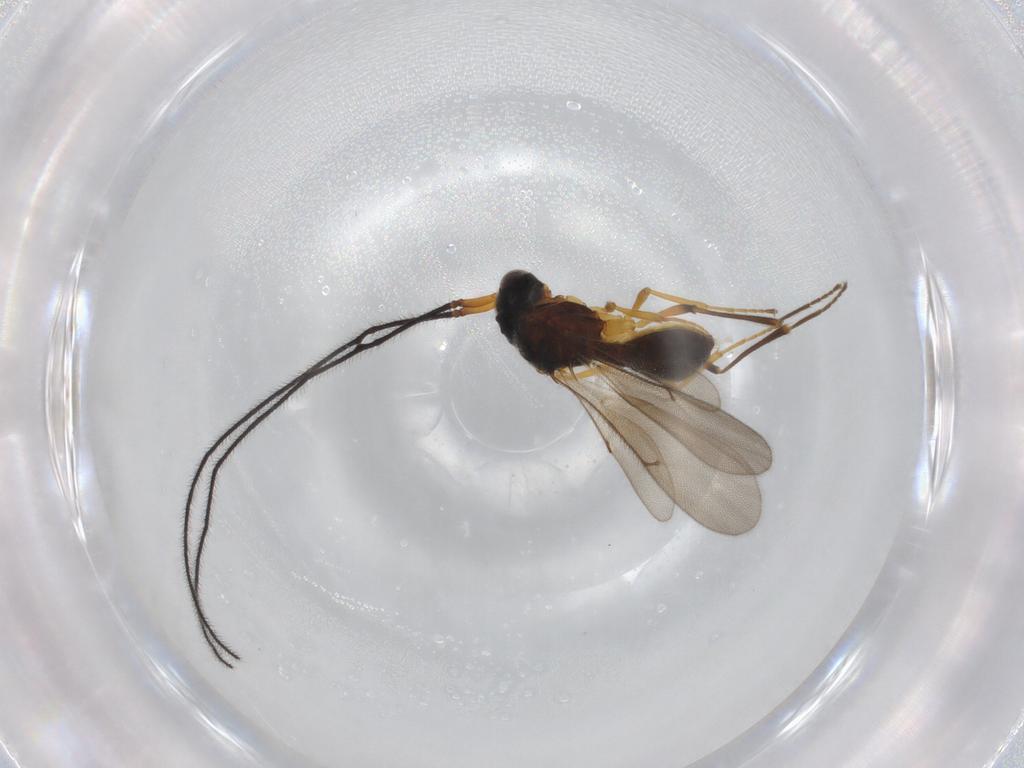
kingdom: Animalia
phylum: Arthropoda
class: Insecta
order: Hymenoptera
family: Scelionidae
